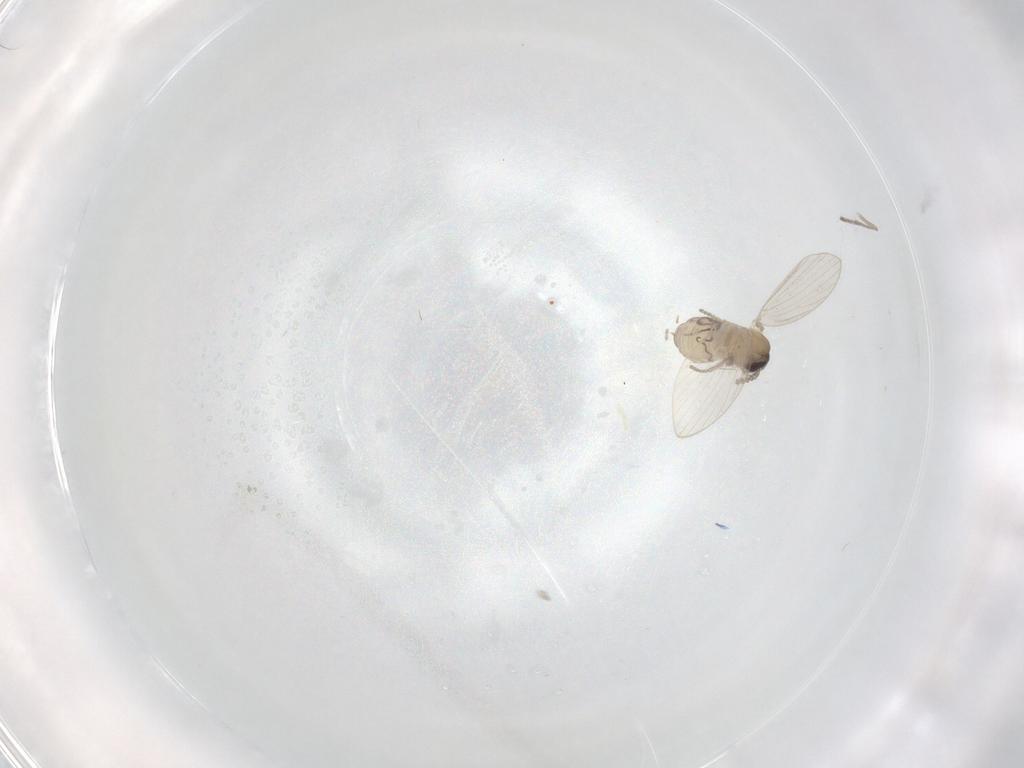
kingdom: Animalia
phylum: Arthropoda
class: Insecta
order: Diptera
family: Psychodidae
